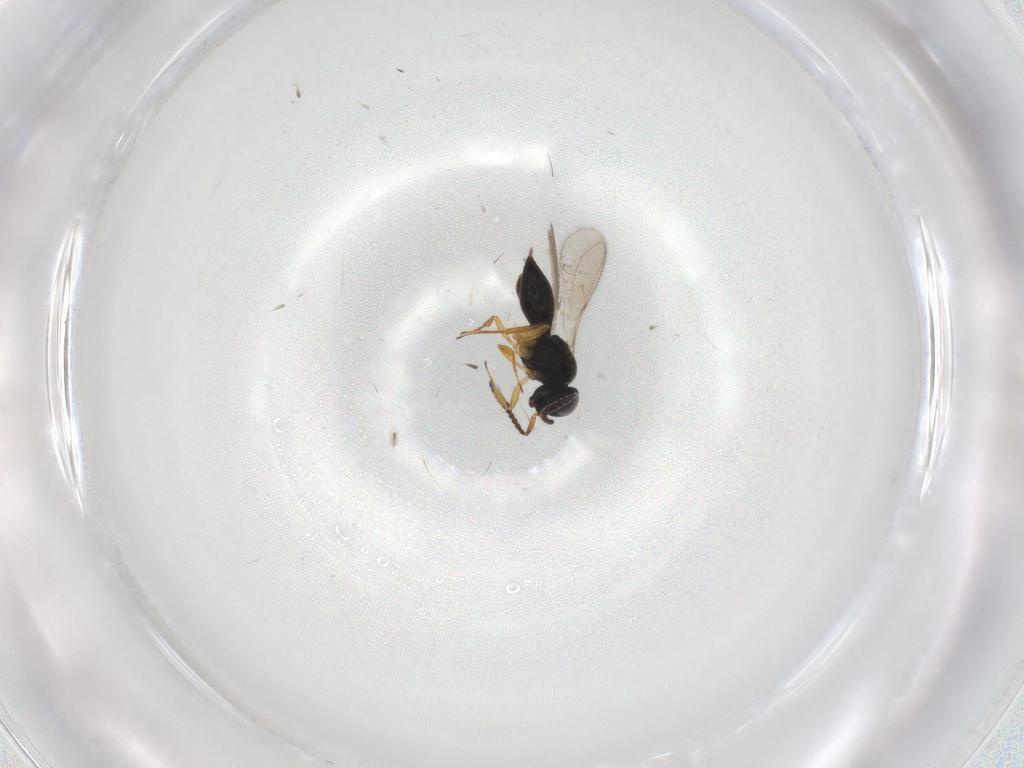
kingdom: Animalia
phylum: Arthropoda
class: Insecta
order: Hymenoptera
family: Scelionidae
